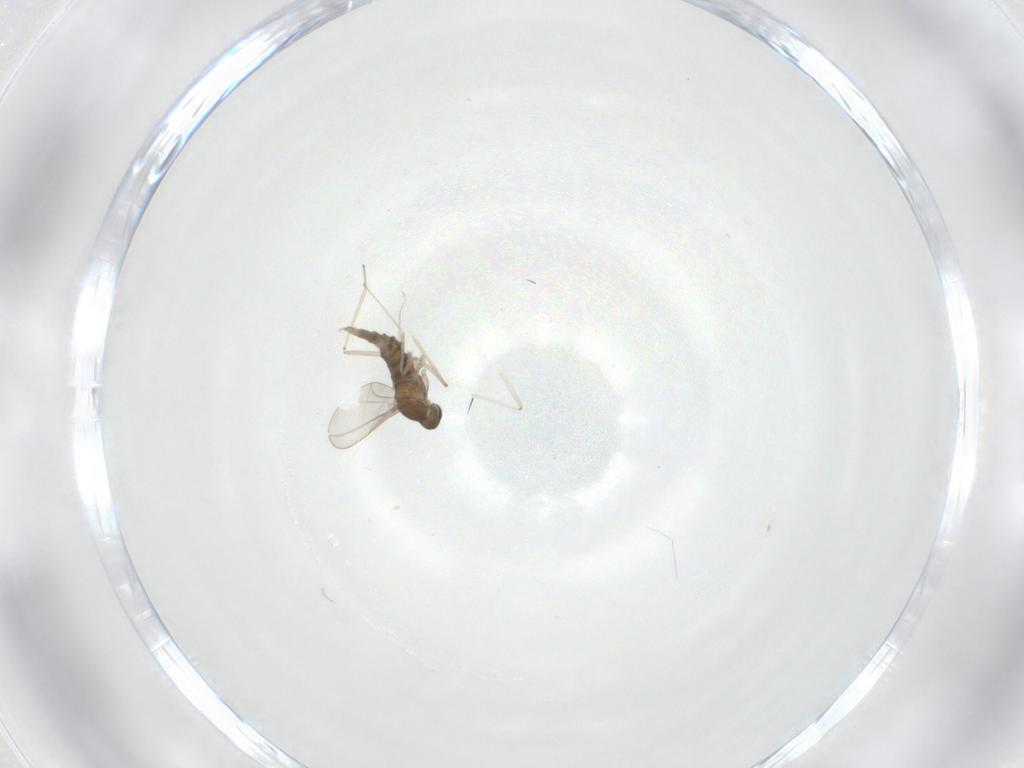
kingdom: Animalia
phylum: Arthropoda
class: Insecta
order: Diptera
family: Cecidomyiidae
